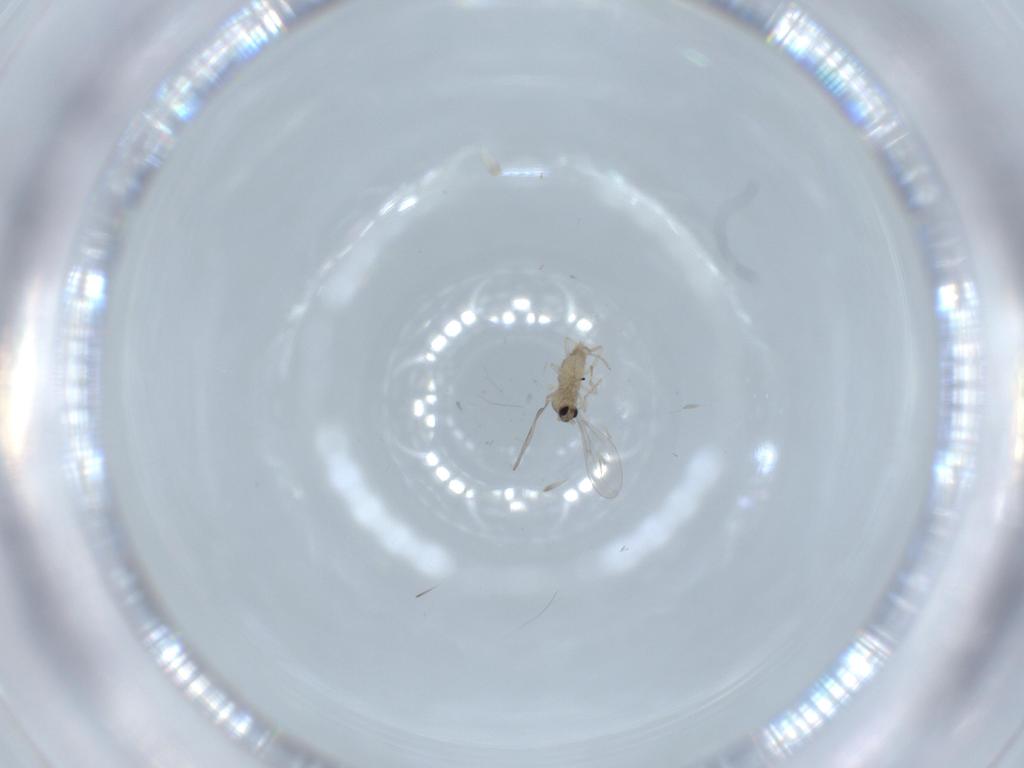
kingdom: Animalia
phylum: Arthropoda
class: Insecta
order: Diptera
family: Cecidomyiidae
